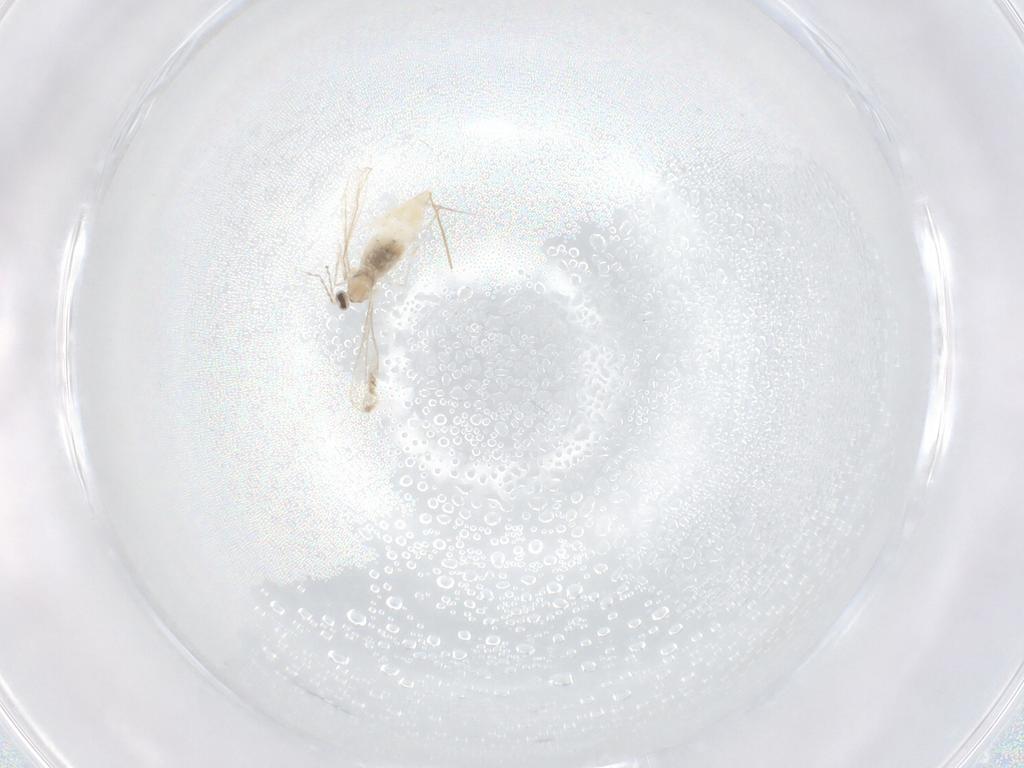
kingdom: Animalia
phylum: Arthropoda
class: Insecta
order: Diptera
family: Cecidomyiidae
